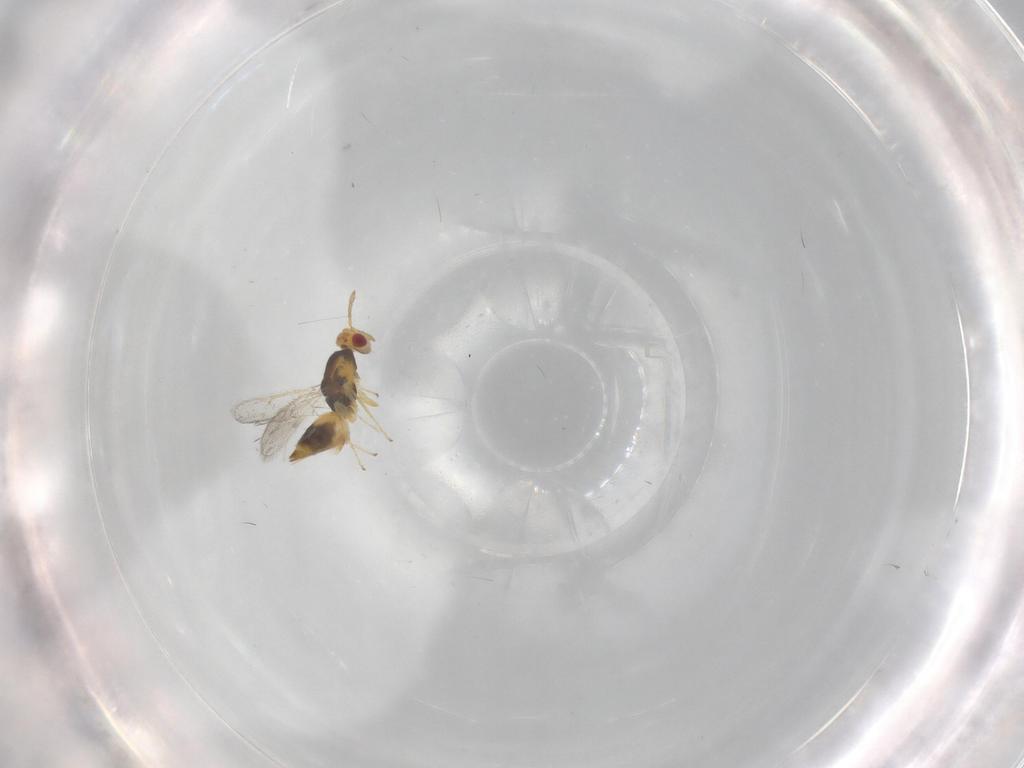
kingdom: Animalia
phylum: Arthropoda
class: Insecta
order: Hymenoptera
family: Eulophidae
